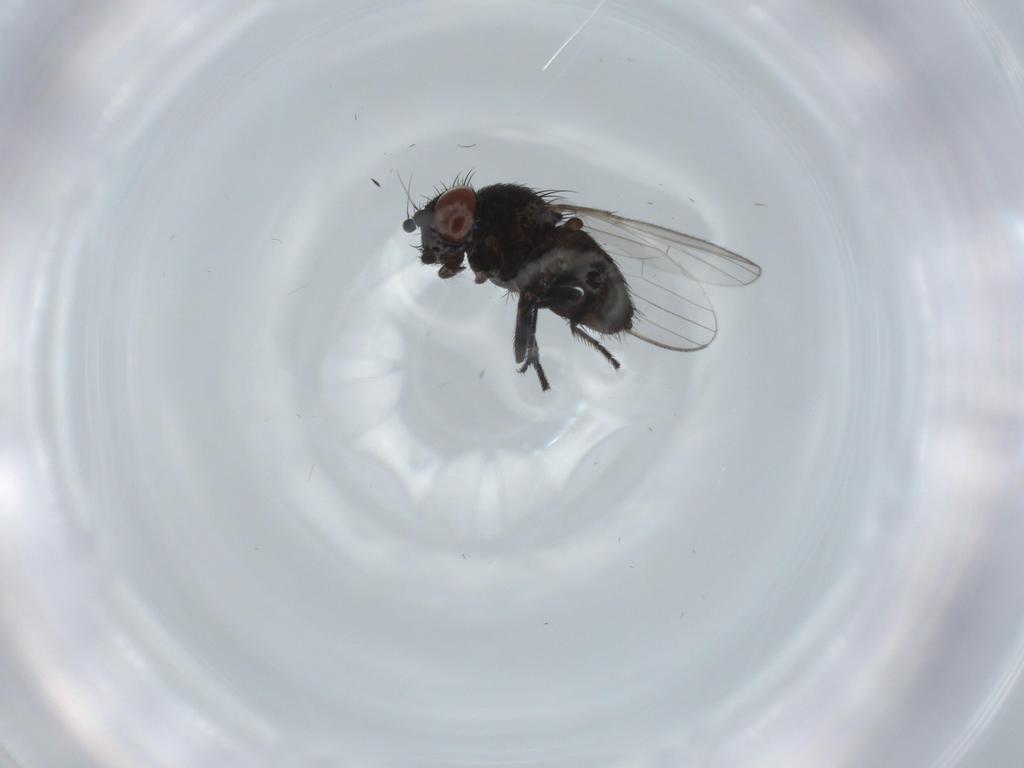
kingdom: Animalia
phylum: Arthropoda
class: Insecta
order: Diptera
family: Milichiidae
